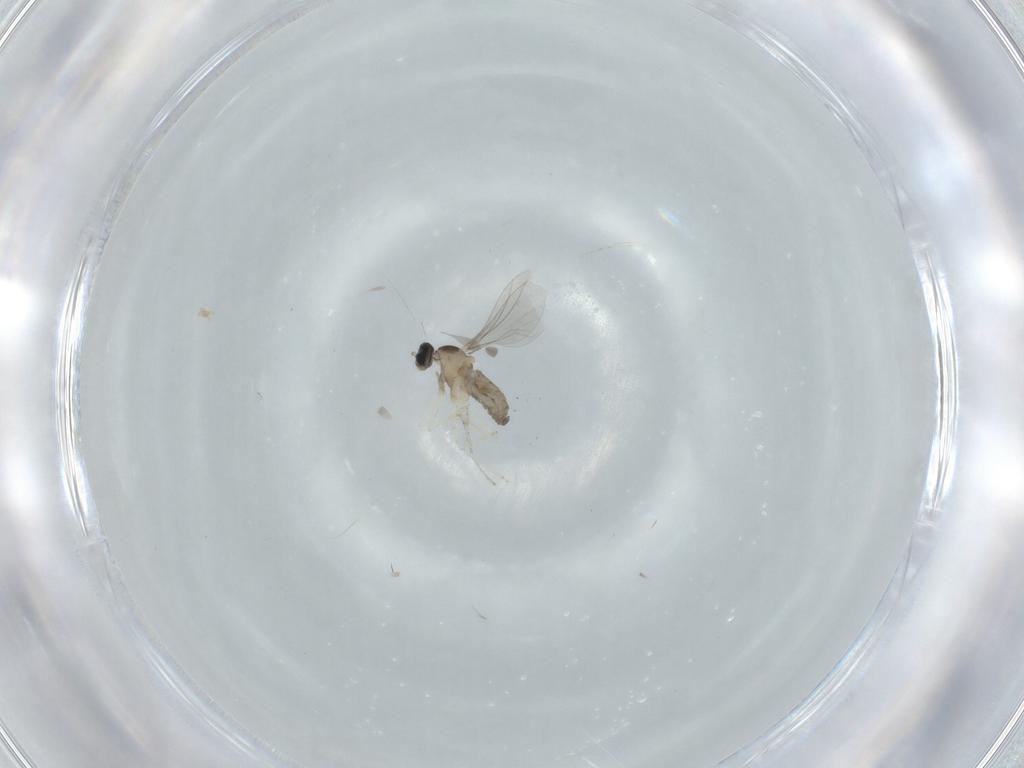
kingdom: Animalia
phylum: Arthropoda
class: Insecta
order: Diptera
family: Cecidomyiidae
